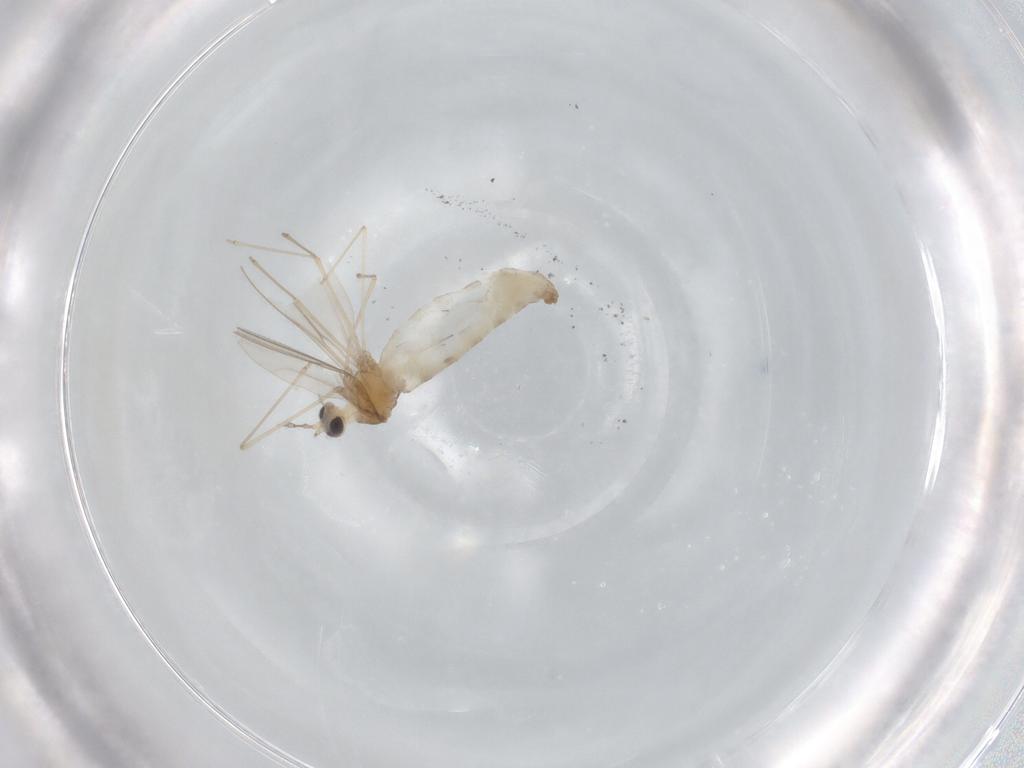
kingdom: Animalia
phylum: Arthropoda
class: Insecta
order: Diptera
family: Cecidomyiidae
